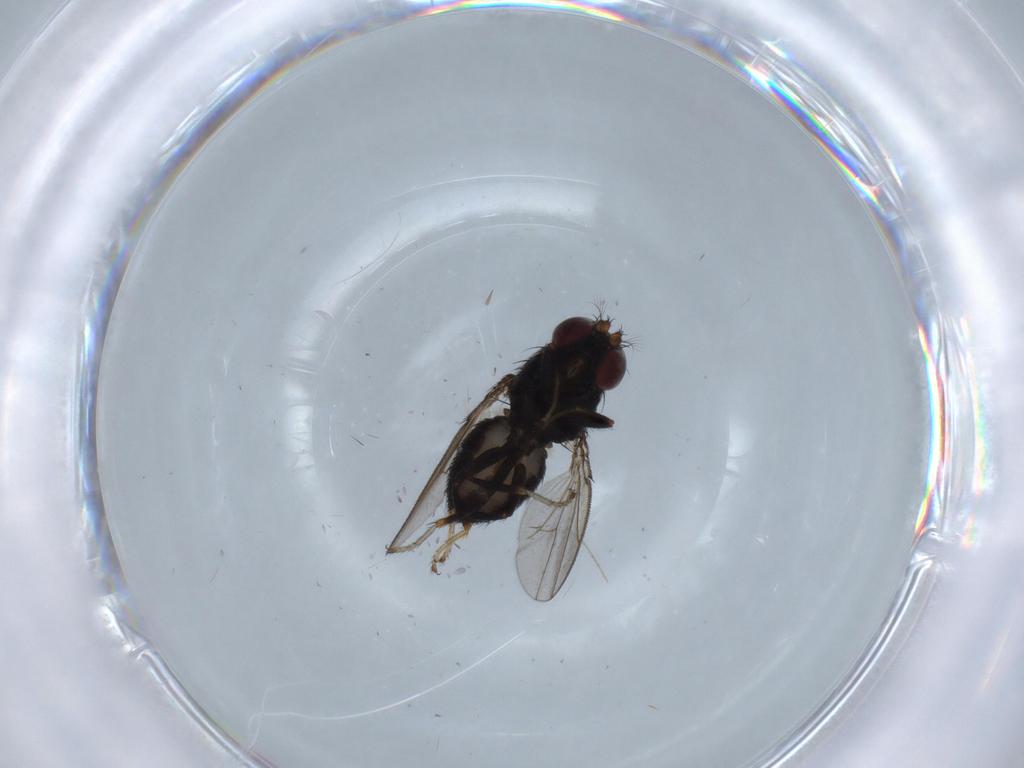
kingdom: Animalia
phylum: Arthropoda
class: Insecta
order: Diptera
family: Ephydridae
